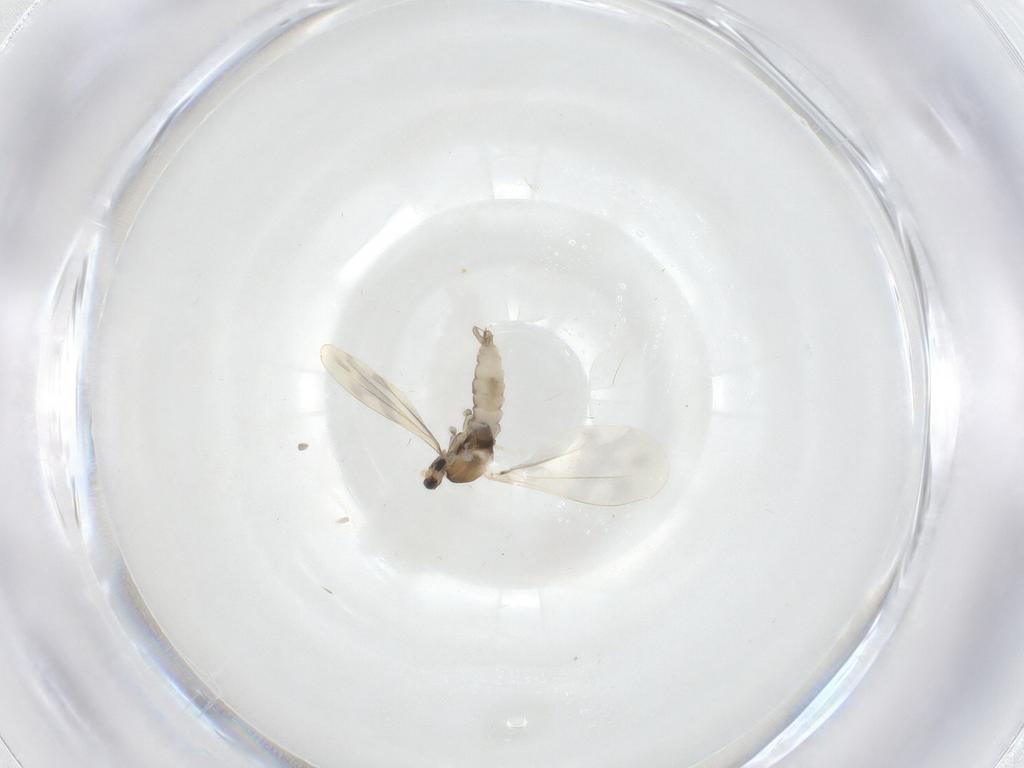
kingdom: Animalia
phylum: Arthropoda
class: Insecta
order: Diptera
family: Cecidomyiidae
